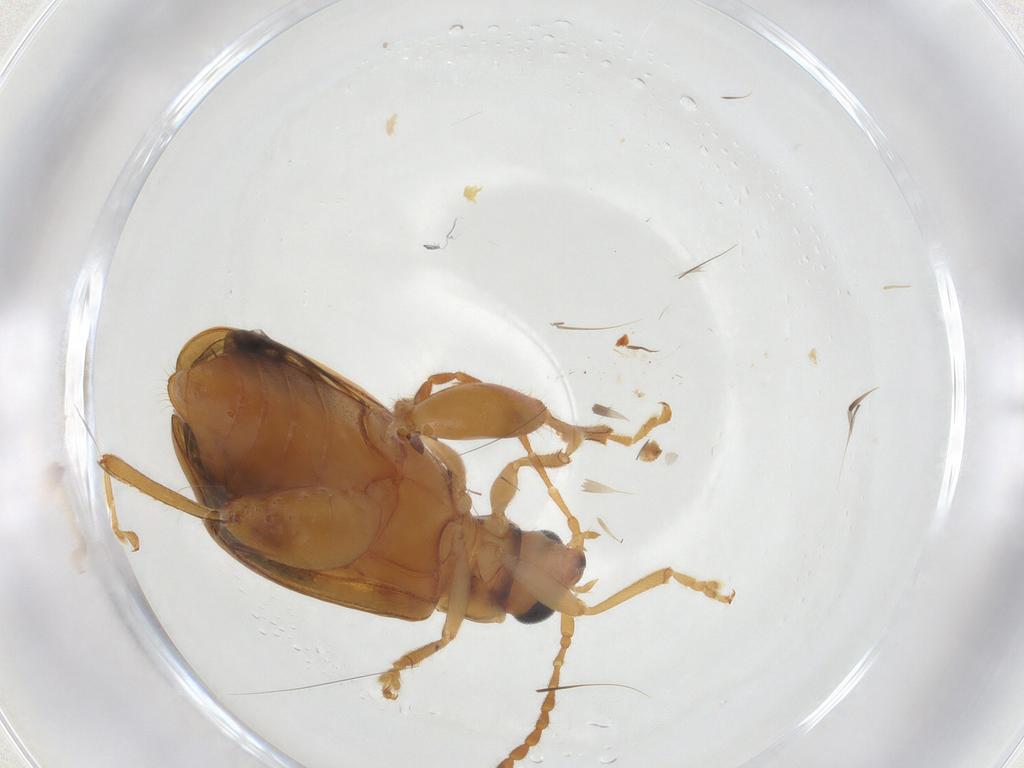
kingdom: Animalia
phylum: Arthropoda
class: Insecta
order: Coleoptera
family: Chrysomelidae
